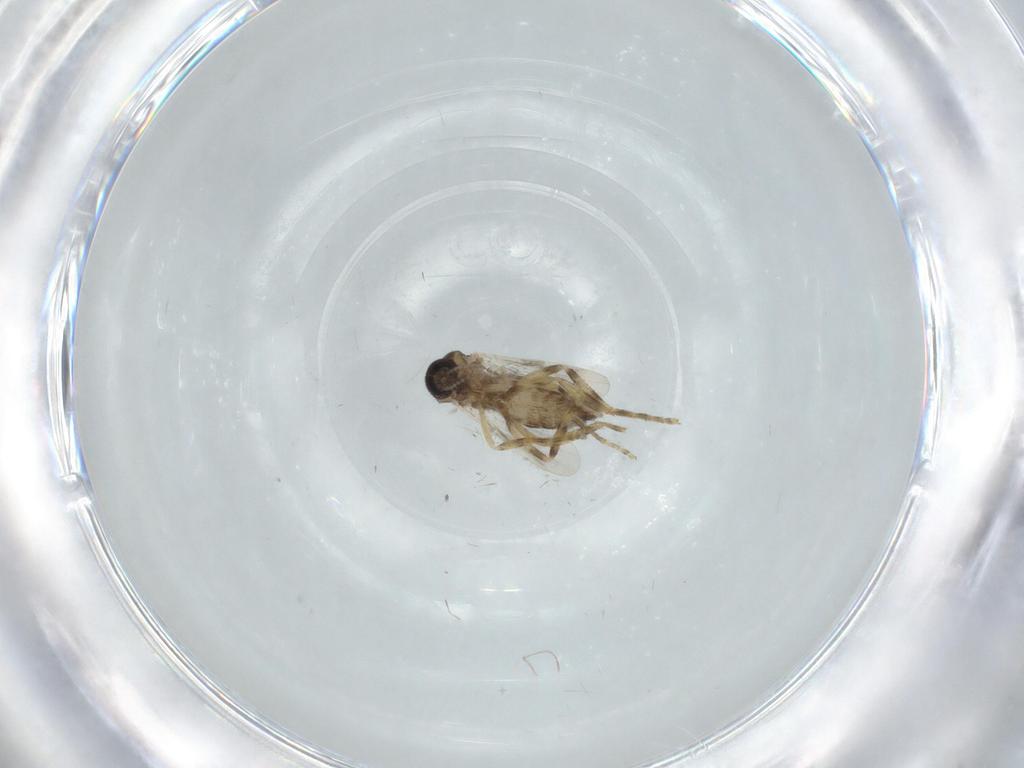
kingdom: Animalia
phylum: Arthropoda
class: Insecta
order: Diptera
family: Ceratopogonidae
